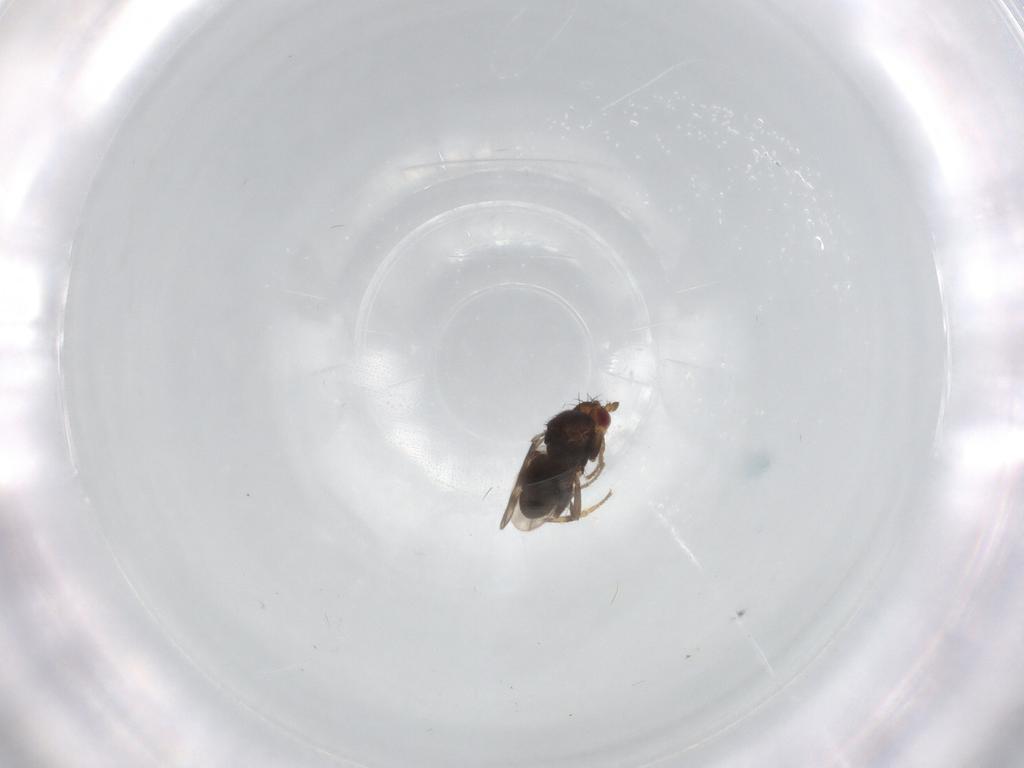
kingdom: Animalia
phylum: Arthropoda
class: Insecta
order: Diptera
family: Sphaeroceridae
